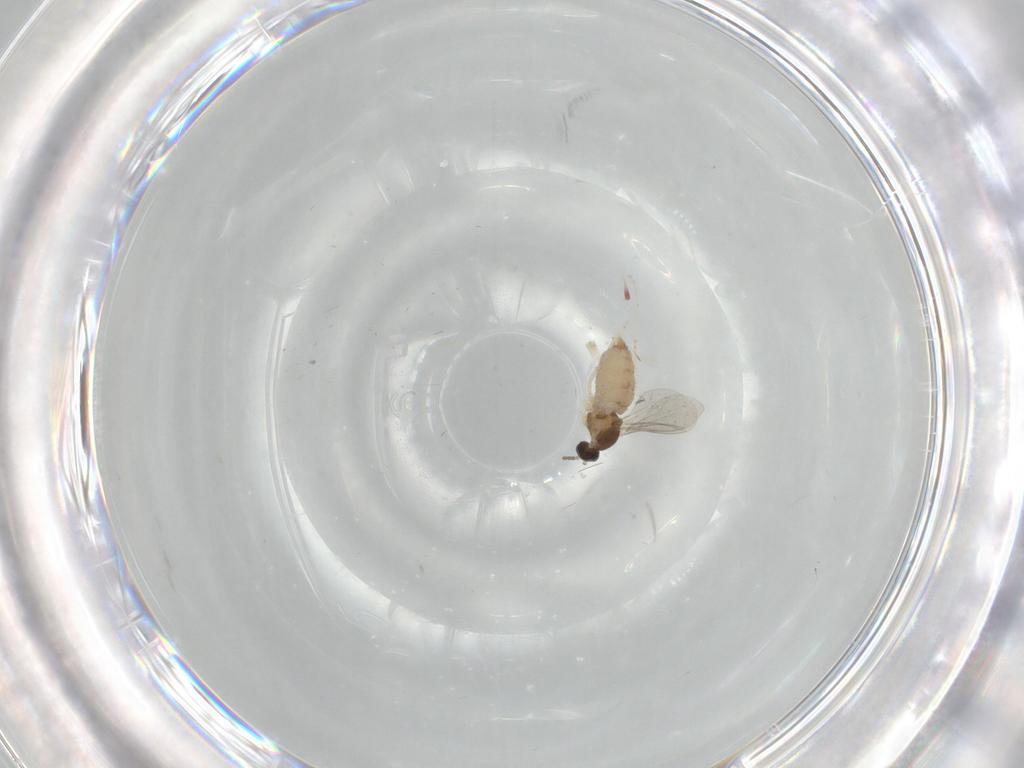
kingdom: Animalia
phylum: Arthropoda
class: Insecta
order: Diptera
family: Cecidomyiidae
